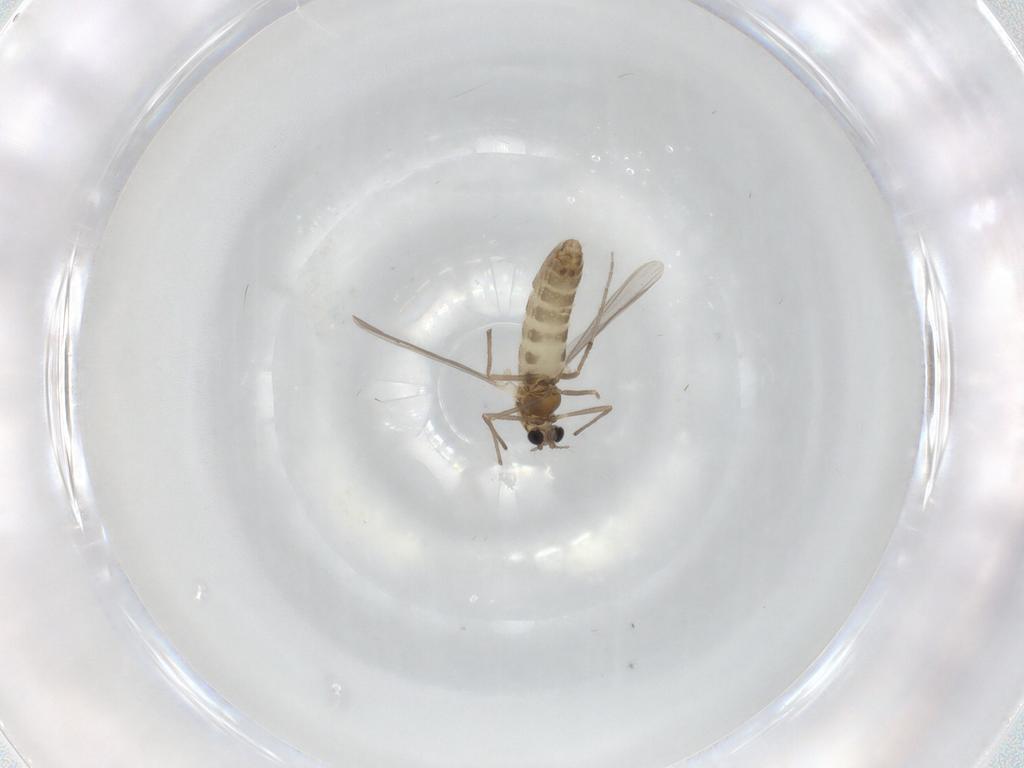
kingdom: Animalia
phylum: Arthropoda
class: Insecta
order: Diptera
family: Chironomidae
